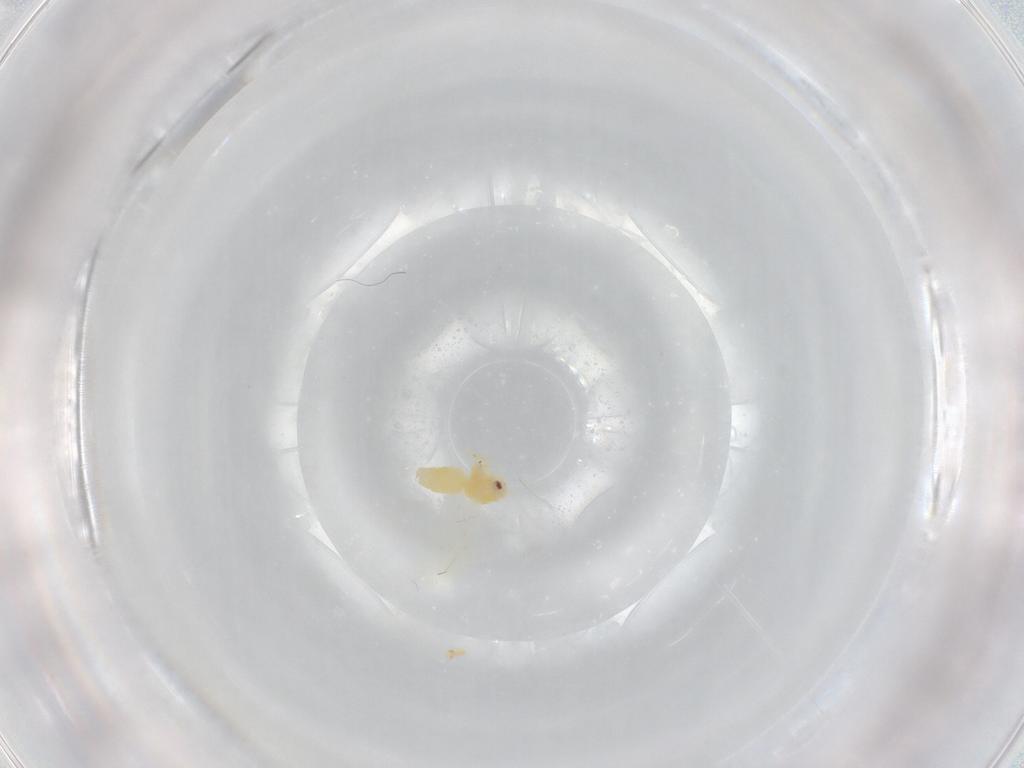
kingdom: Animalia
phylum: Arthropoda
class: Insecta
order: Hemiptera
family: Aleyrodidae
